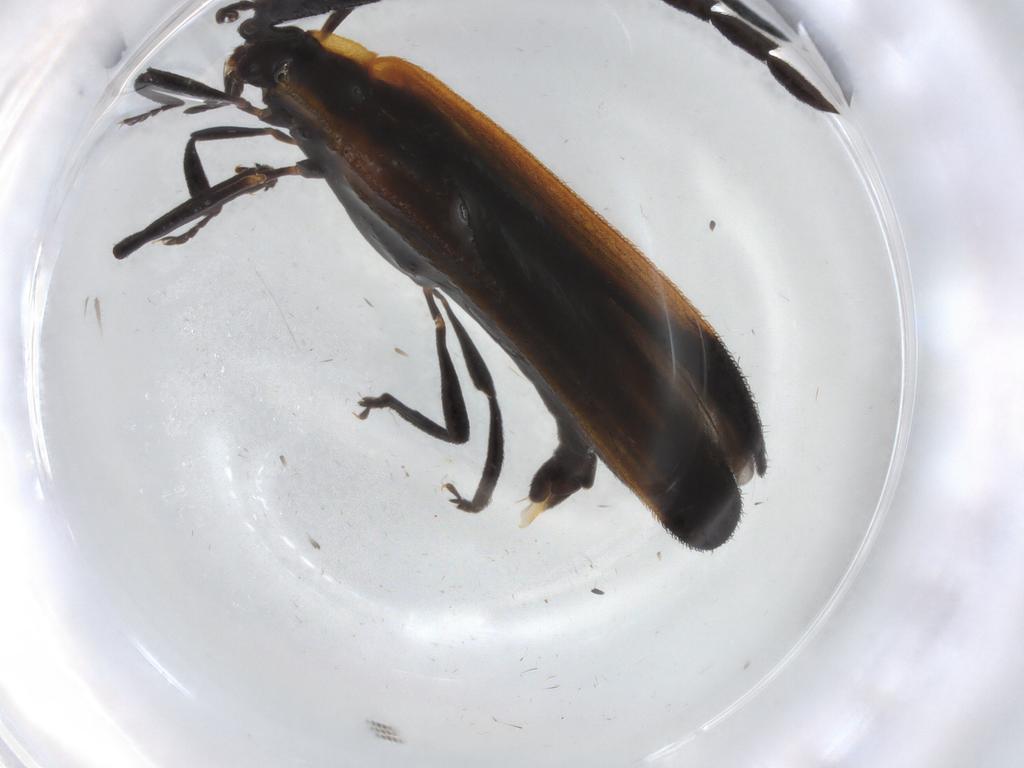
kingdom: Animalia
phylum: Arthropoda
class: Insecta
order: Coleoptera
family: Lycidae
